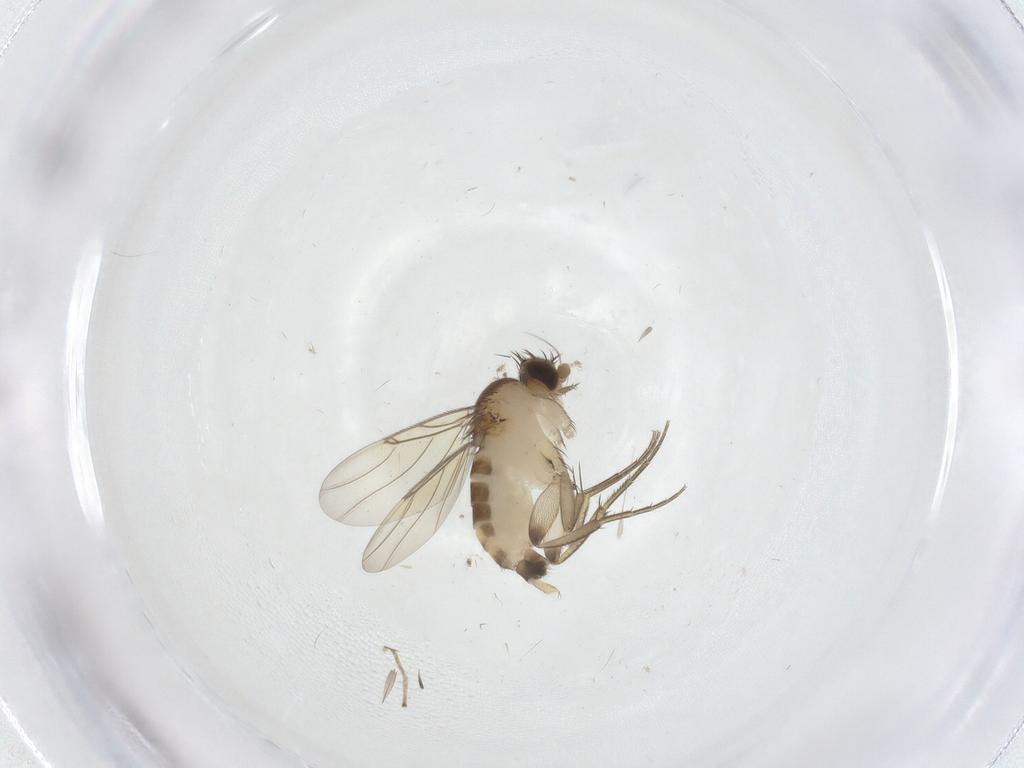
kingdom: Animalia
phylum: Arthropoda
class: Insecta
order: Diptera
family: Phoridae
